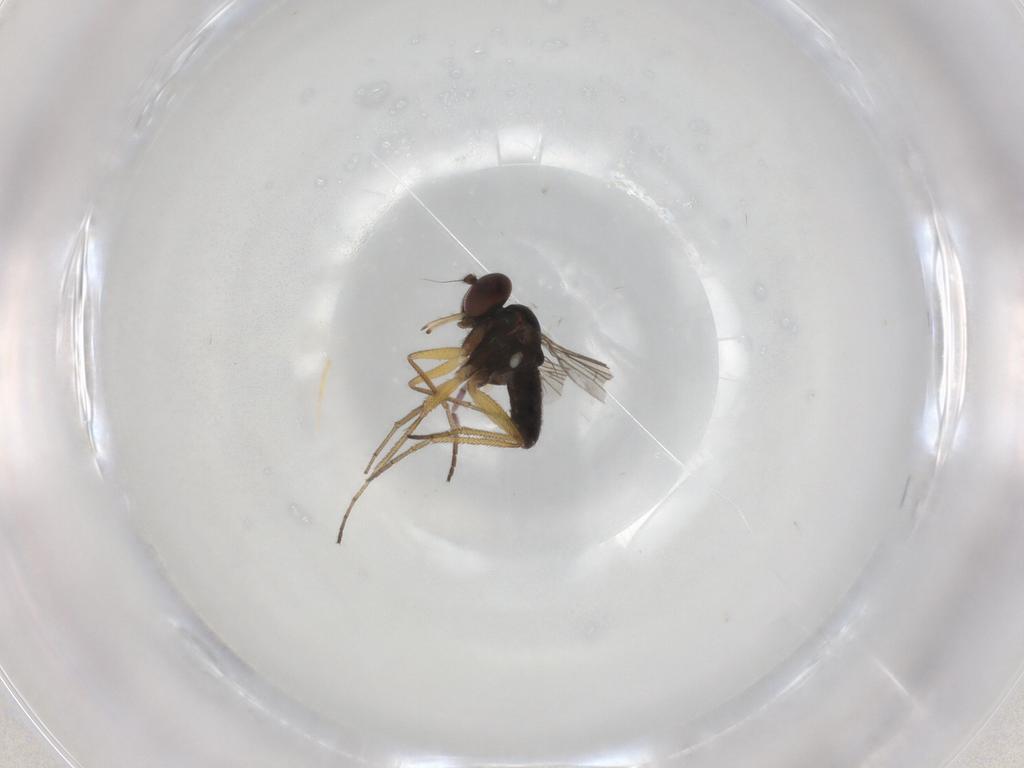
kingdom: Animalia
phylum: Arthropoda
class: Insecta
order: Diptera
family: Dolichopodidae
